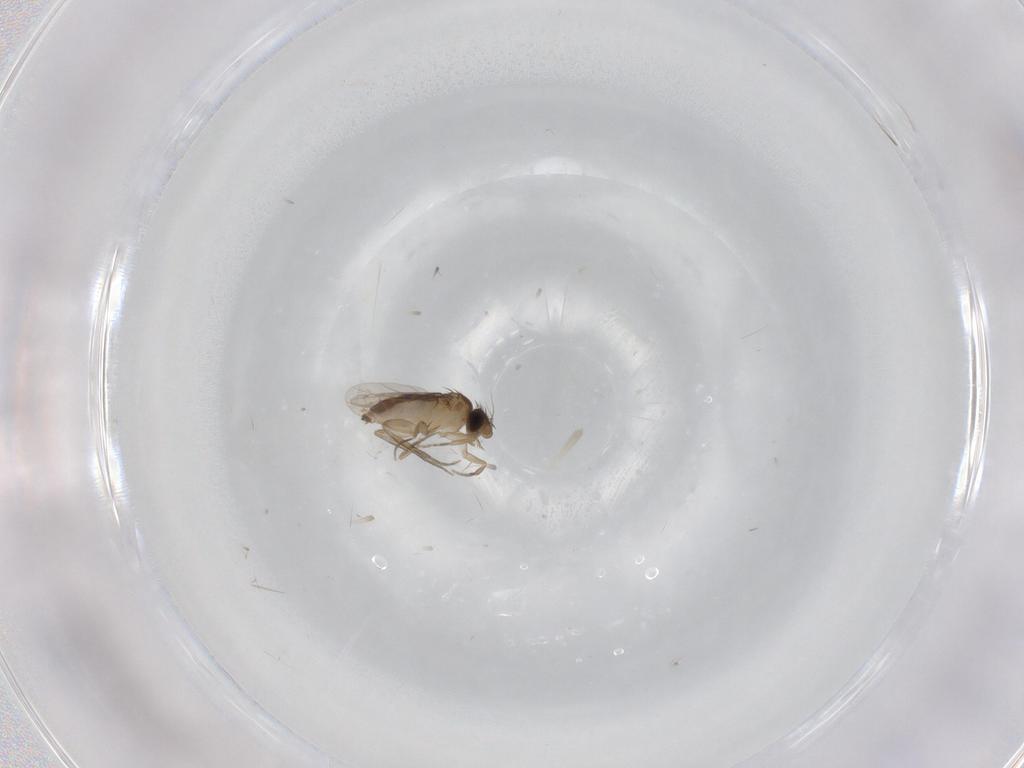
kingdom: Animalia
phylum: Arthropoda
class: Insecta
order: Diptera
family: Phoridae
